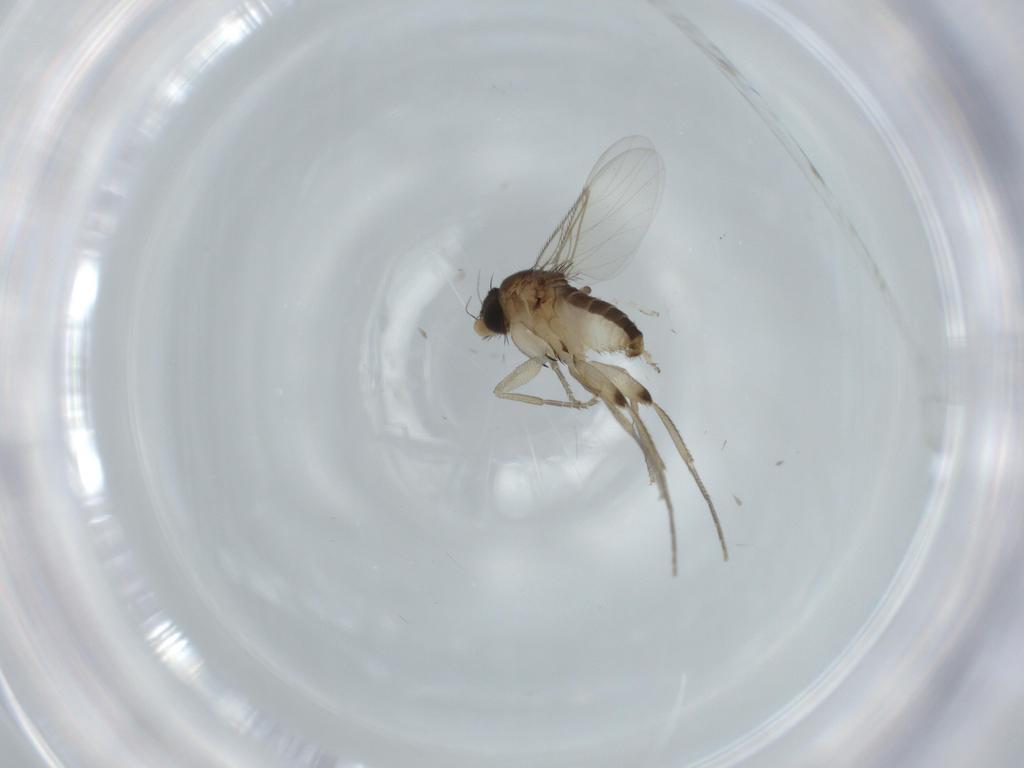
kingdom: Animalia
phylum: Arthropoda
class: Insecta
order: Diptera
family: Phoridae
